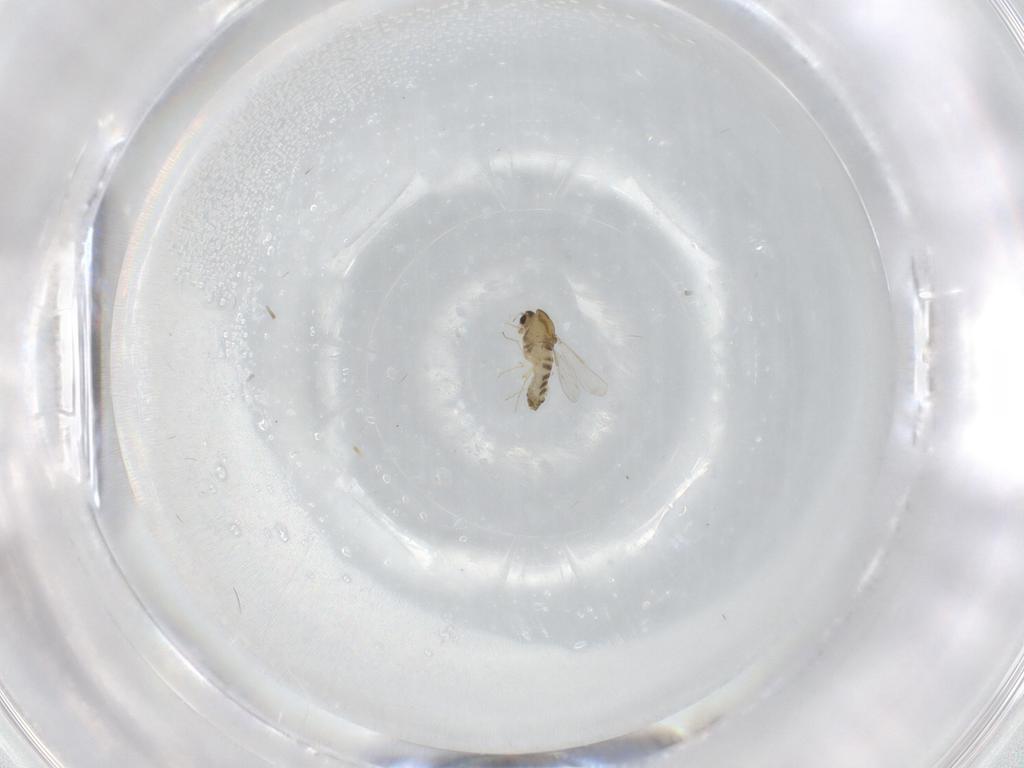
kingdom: Animalia
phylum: Arthropoda
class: Insecta
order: Diptera
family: Chironomidae
